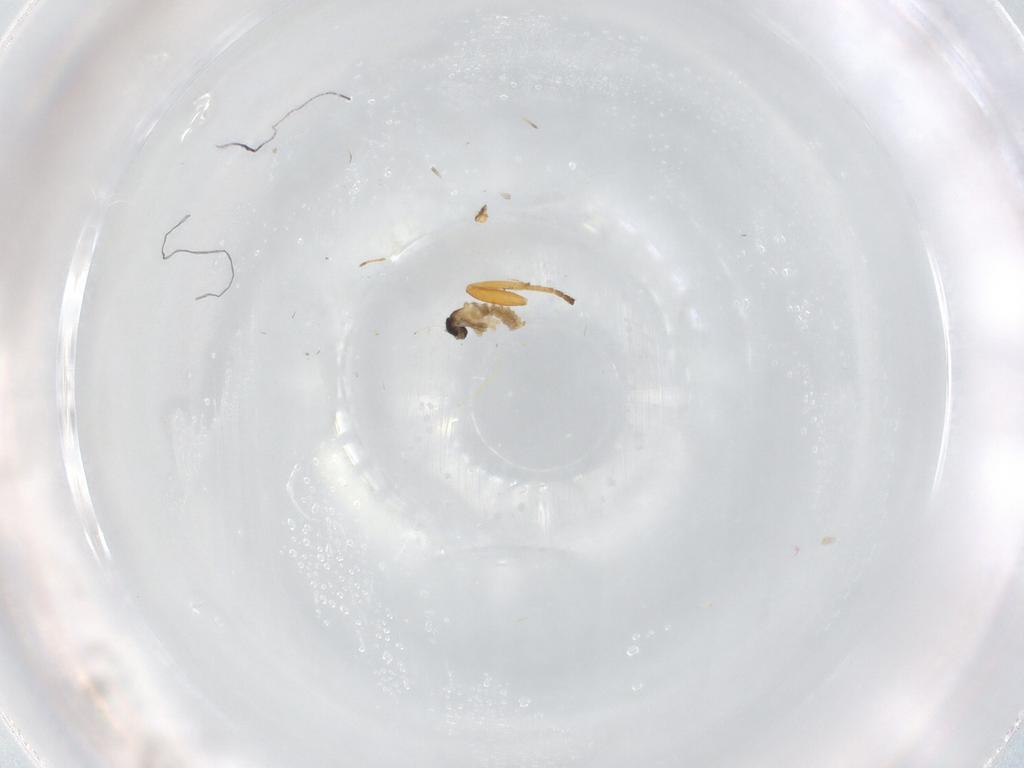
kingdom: Animalia
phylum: Arthropoda
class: Insecta
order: Diptera
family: Cecidomyiidae
